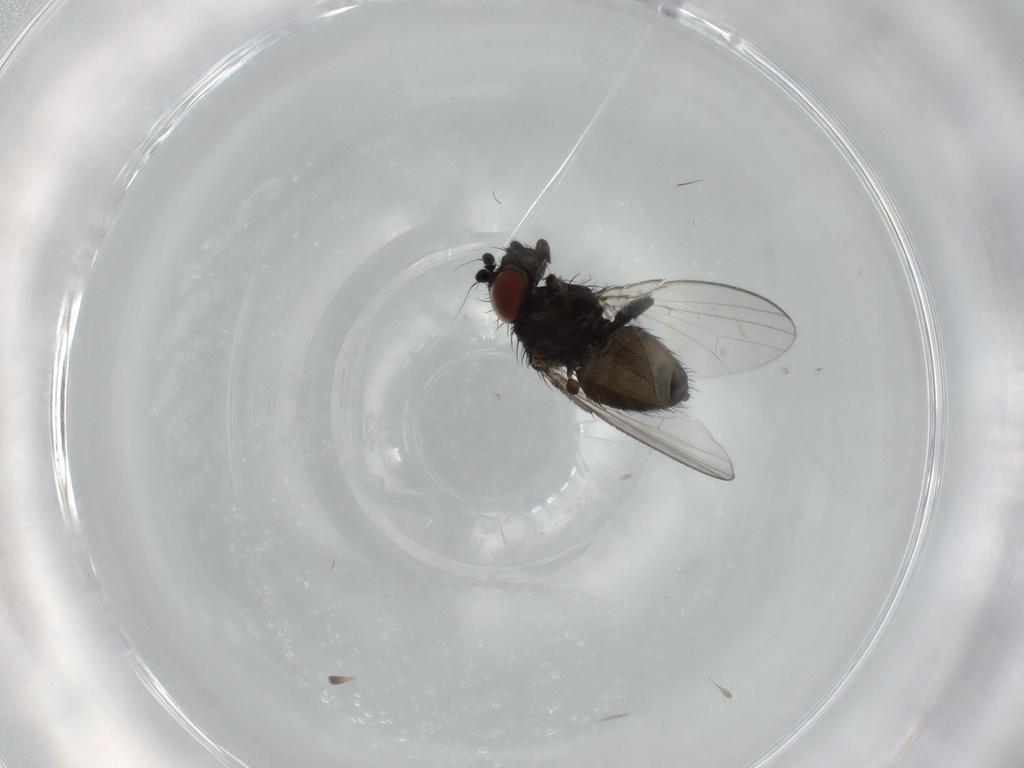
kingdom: Animalia
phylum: Arthropoda
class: Insecta
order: Diptera
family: Milichiidae
